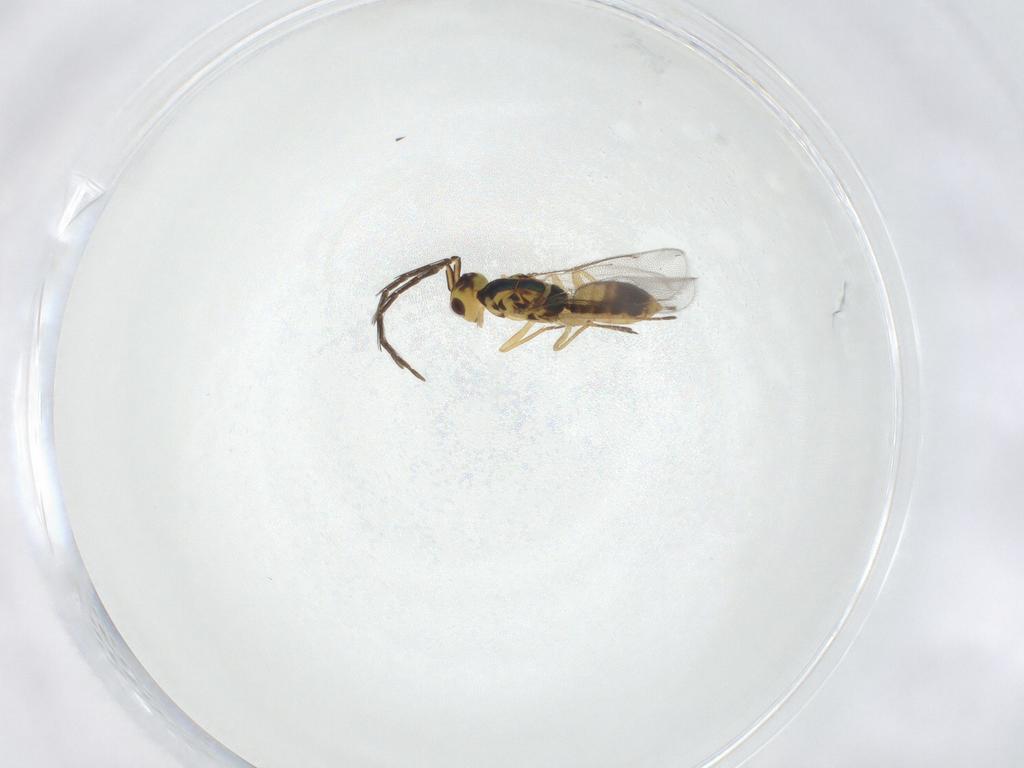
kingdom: Animalia
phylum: Arthropoda
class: Insecta
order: Hymenoptera
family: Eulophidae
